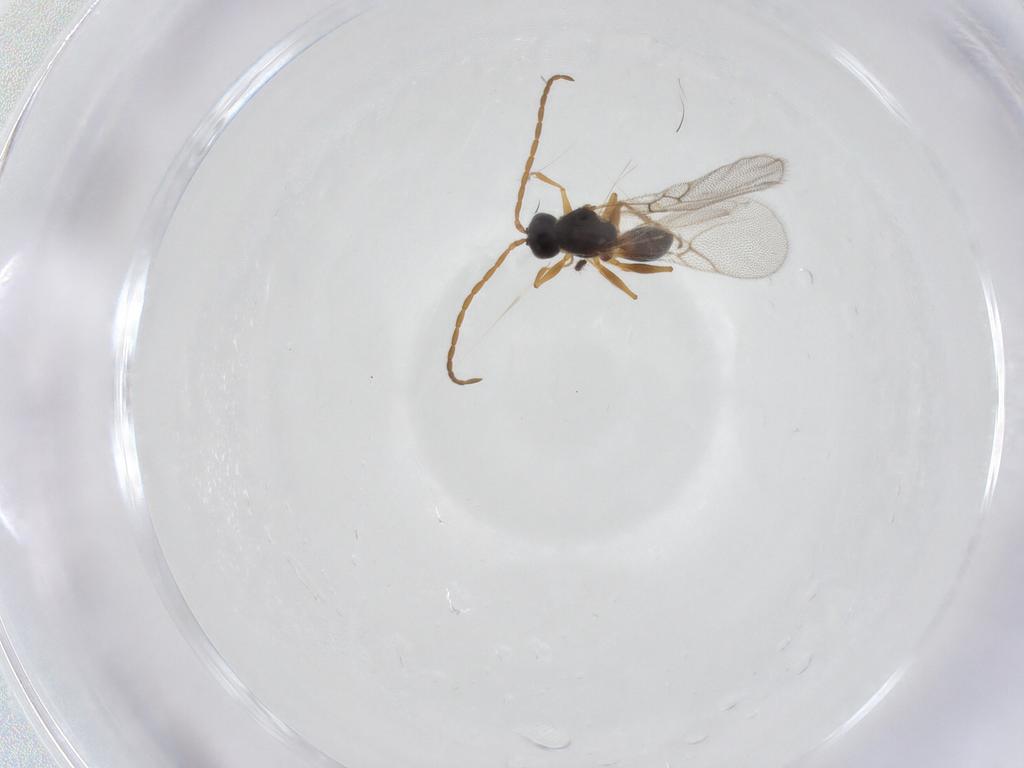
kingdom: Animalia
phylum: Arthropoda
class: Insecta
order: Hymenoptera
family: Figitidae
